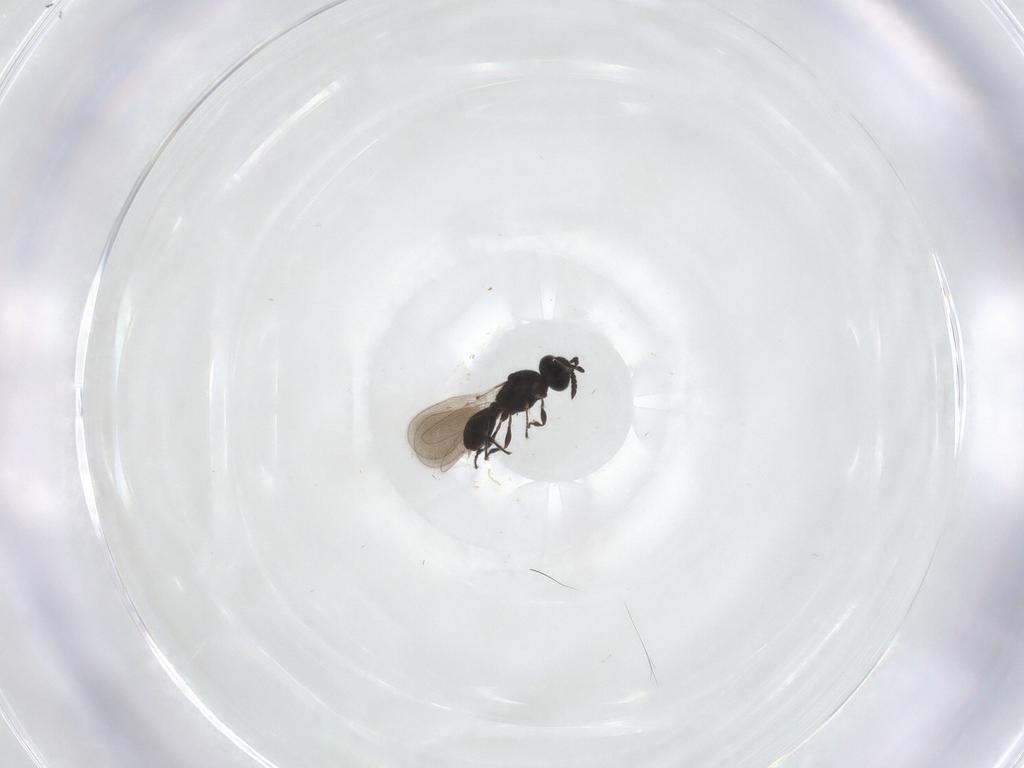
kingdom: Animalia
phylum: Arthropoda
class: Insecta
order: Hymenoptera
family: Platygastridae
